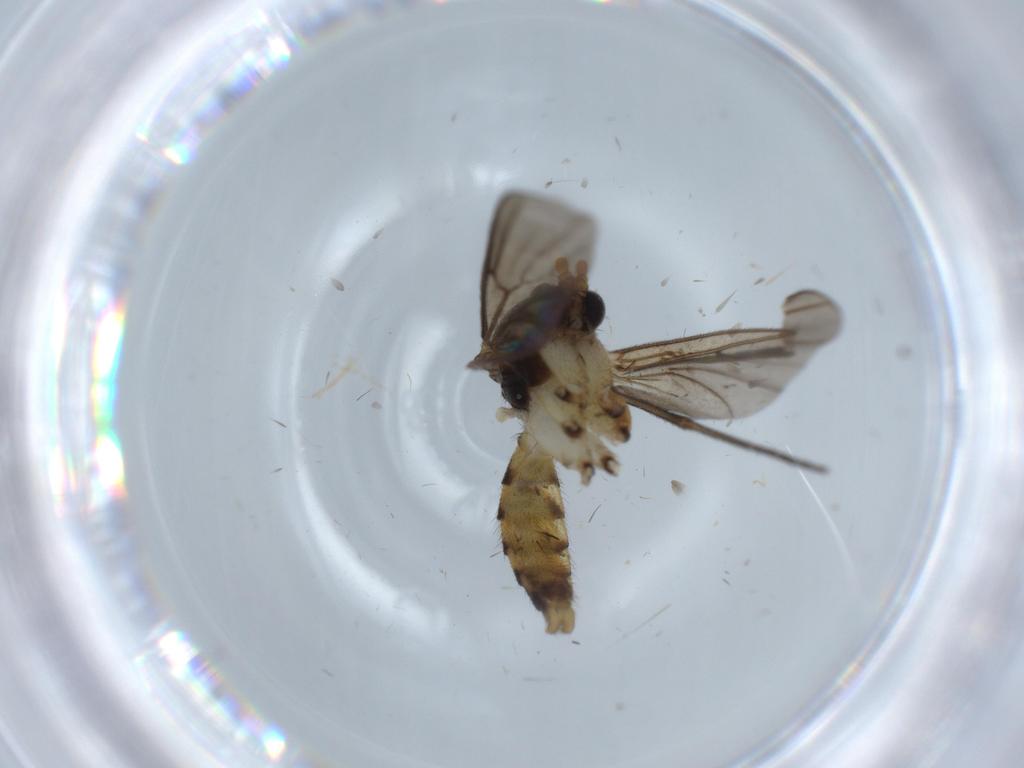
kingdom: Animalia
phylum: Arthropoda
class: Insecta
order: Diptera
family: Mycetophilidae
